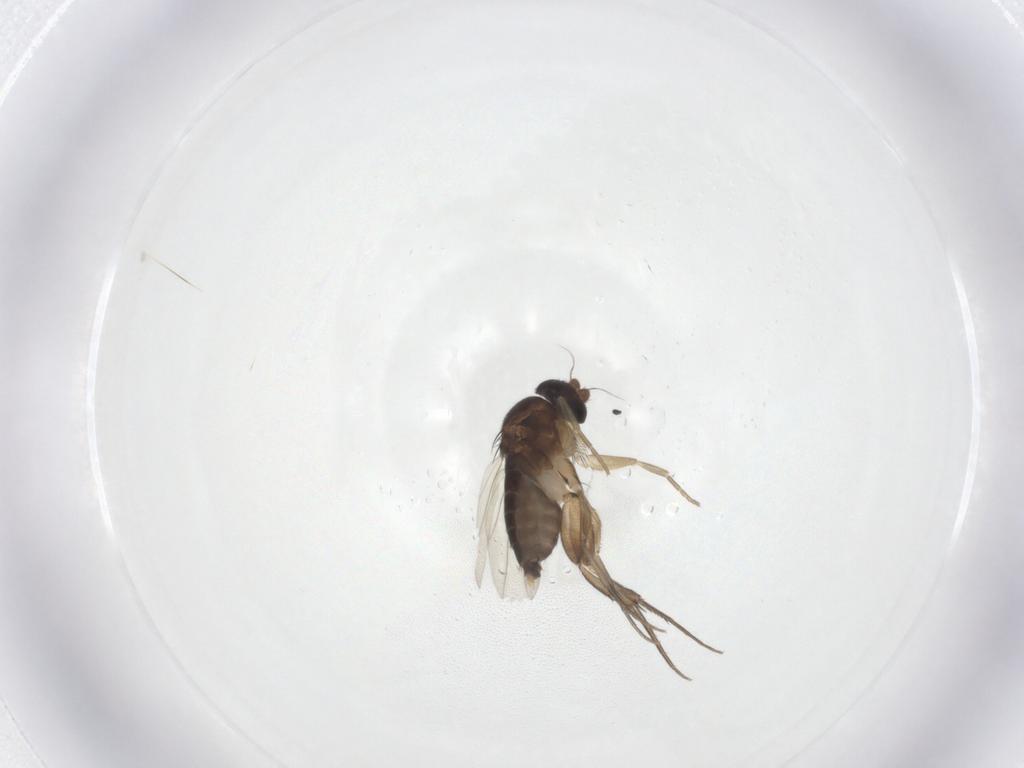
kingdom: Animalia
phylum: Arthropoda
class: Insecta
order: Diptera
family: Phoridae
